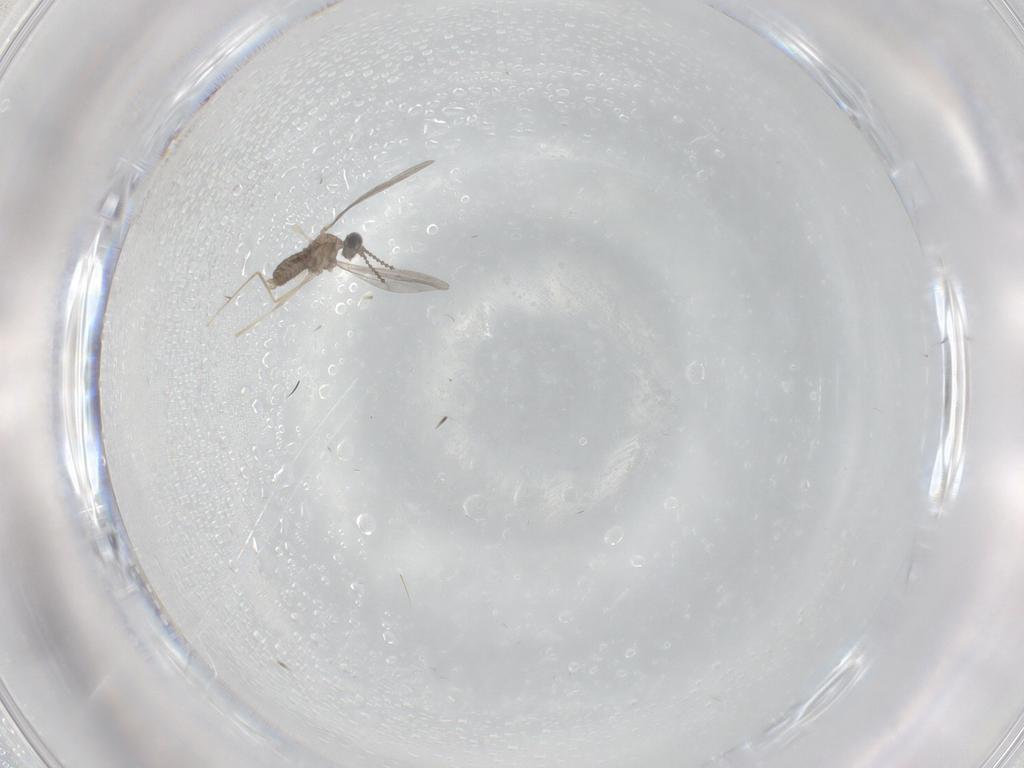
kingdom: Animalia
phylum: Arthropoda
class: Insecta
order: Diptera
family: Cecidomyiidae
